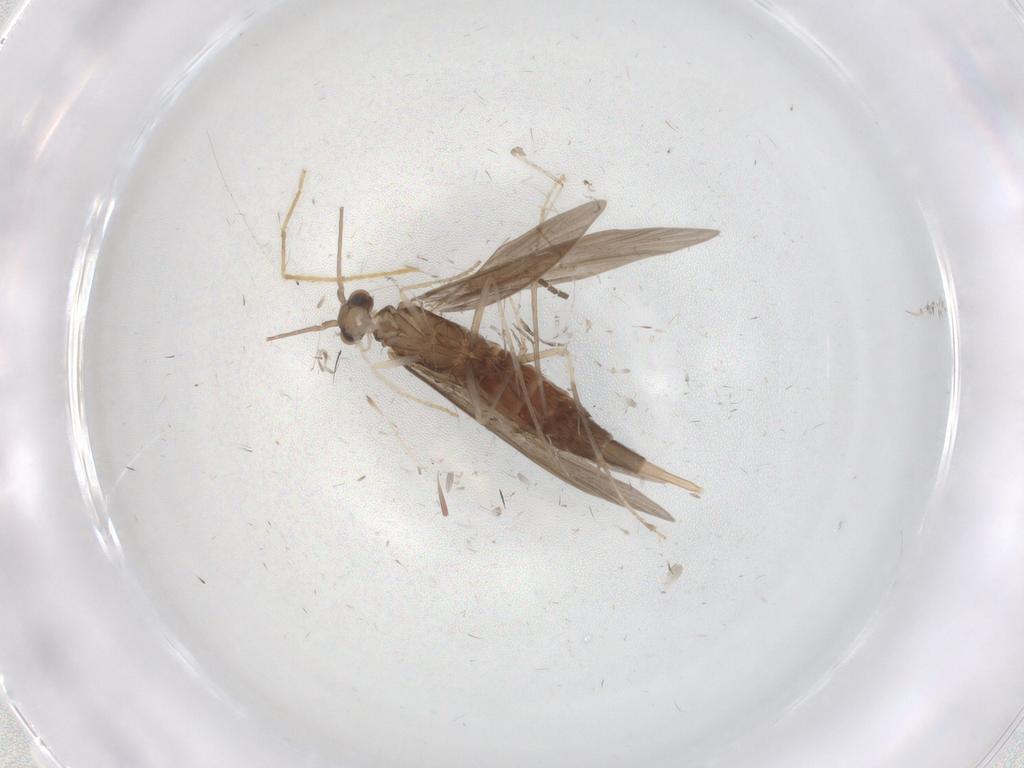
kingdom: Animalia
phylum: Arthropoda
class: Insecta
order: Trichoptera
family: Xiphocentronidae
